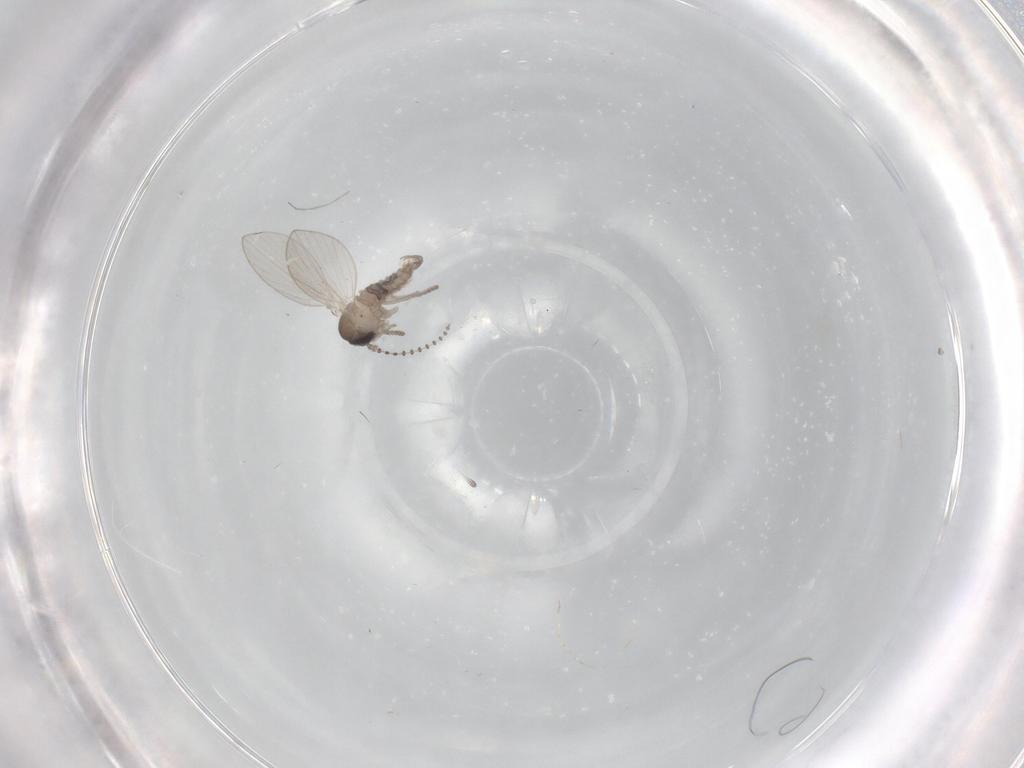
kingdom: Animalia
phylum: Arthropoda
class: Insecta
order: Diptera
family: Psychodidae
